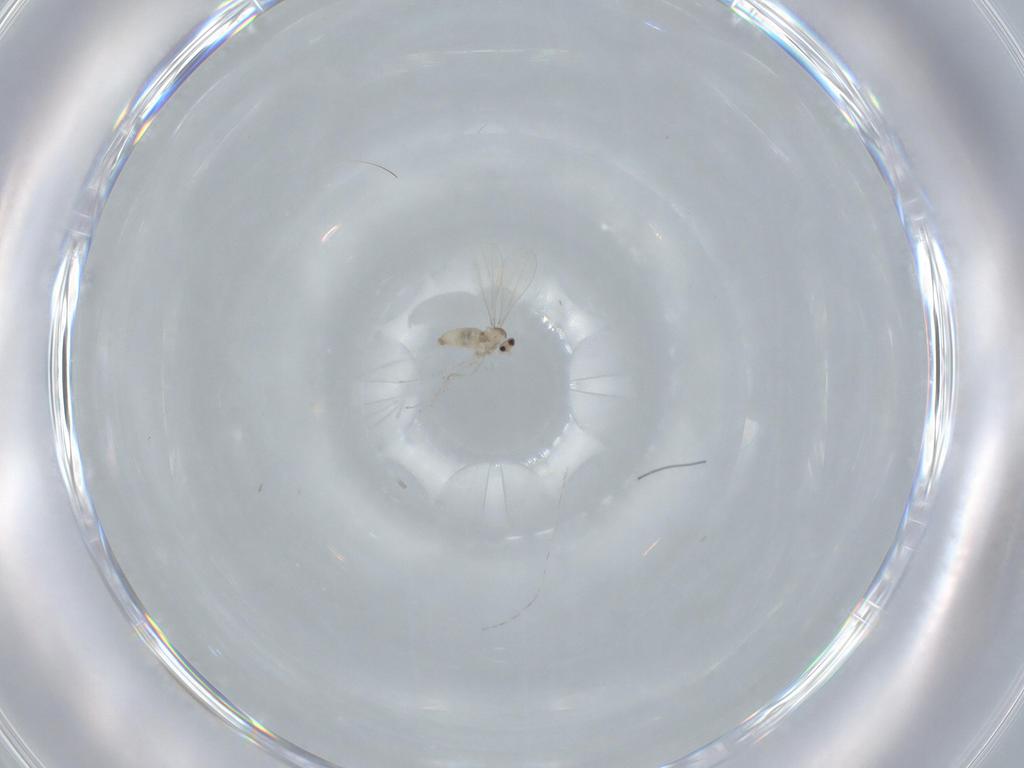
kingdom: Animalia
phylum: Arthropoda
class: Insecta
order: Diptera
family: Cecidomyiidae
